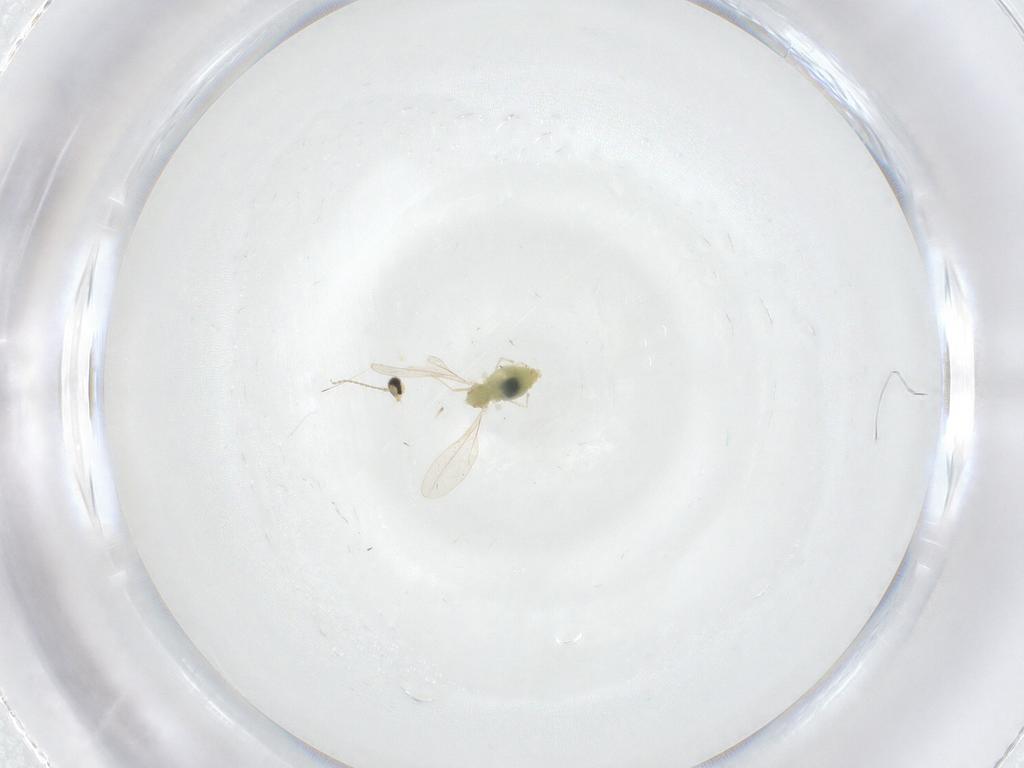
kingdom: Animalia
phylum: Arthropoda
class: Insecta
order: Diptera
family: Cecidomyiidae
